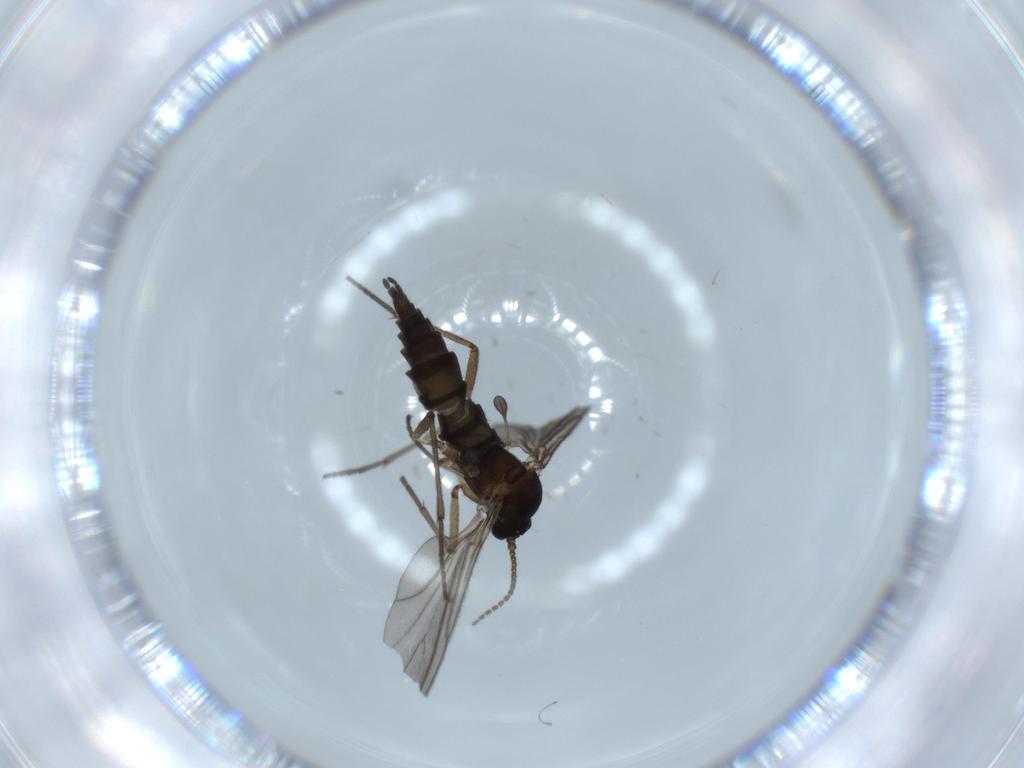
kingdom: Animalia
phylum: Arthropoda
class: Insecta
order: Diptera
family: Sciaridae
